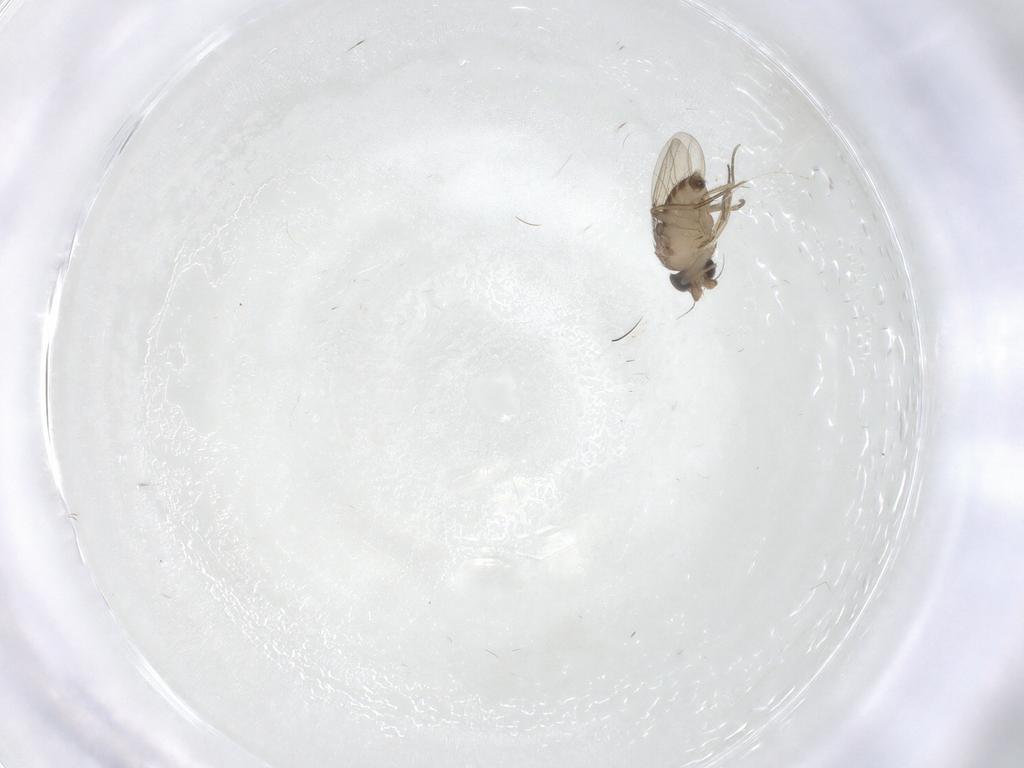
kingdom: Animalia
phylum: Arthropoda
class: Insecta
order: Diptera
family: Phoridae
